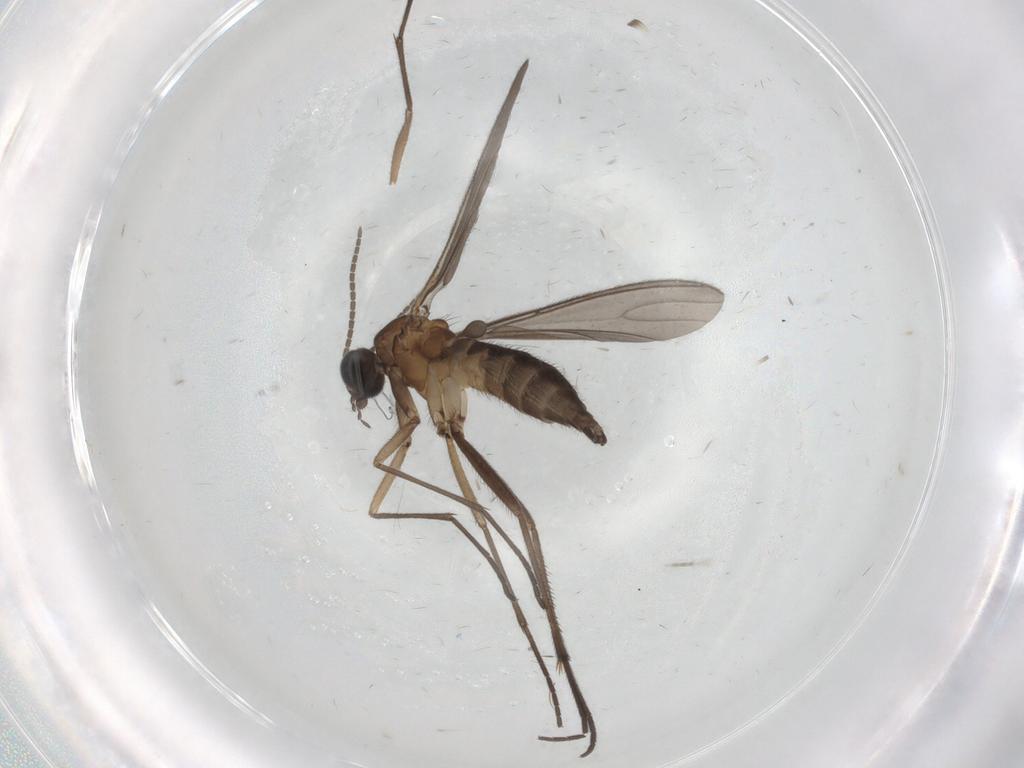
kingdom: Animalia
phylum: Arthropoda
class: Insecta
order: Diptera
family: Sciaridae
